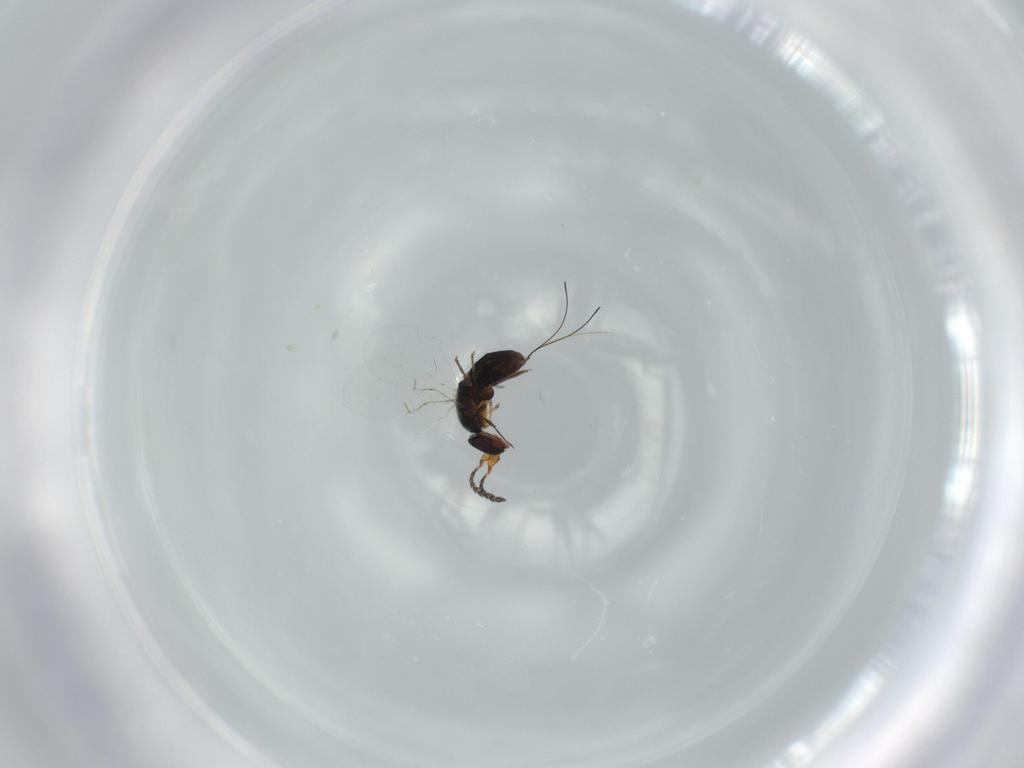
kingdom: Animalia
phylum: Arthropoda
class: Insecta
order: Hymenoptera
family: Agaonidae
